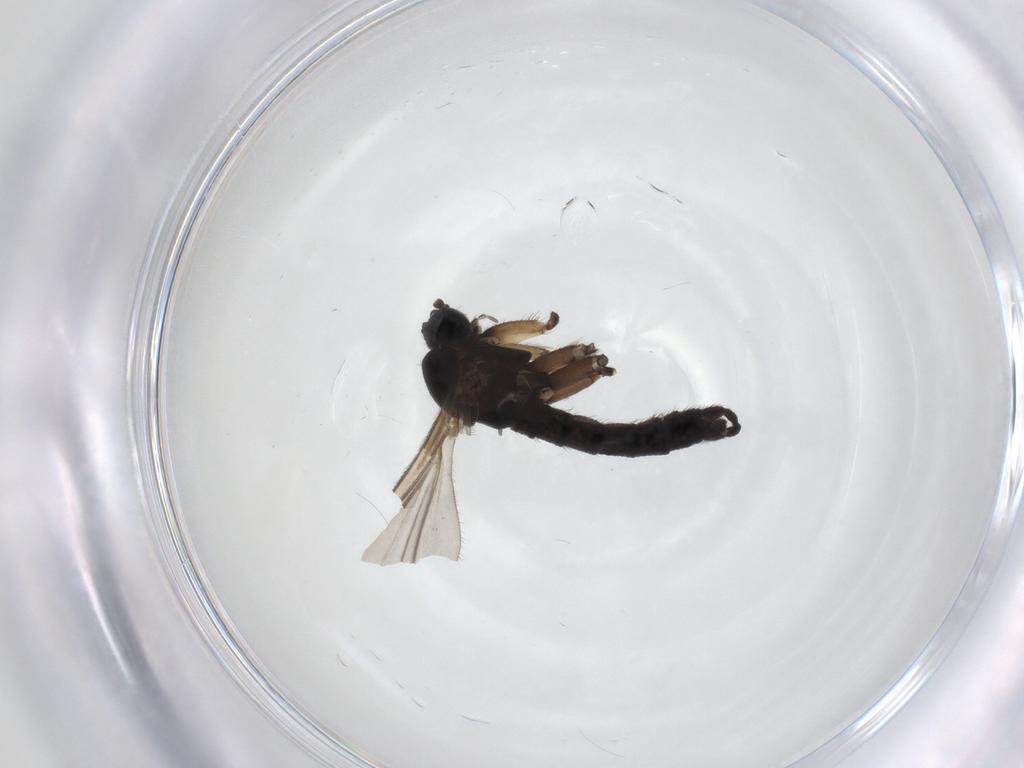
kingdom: Animalia
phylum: Arthropoda
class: Insecta
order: Diptera
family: Sciaridae
